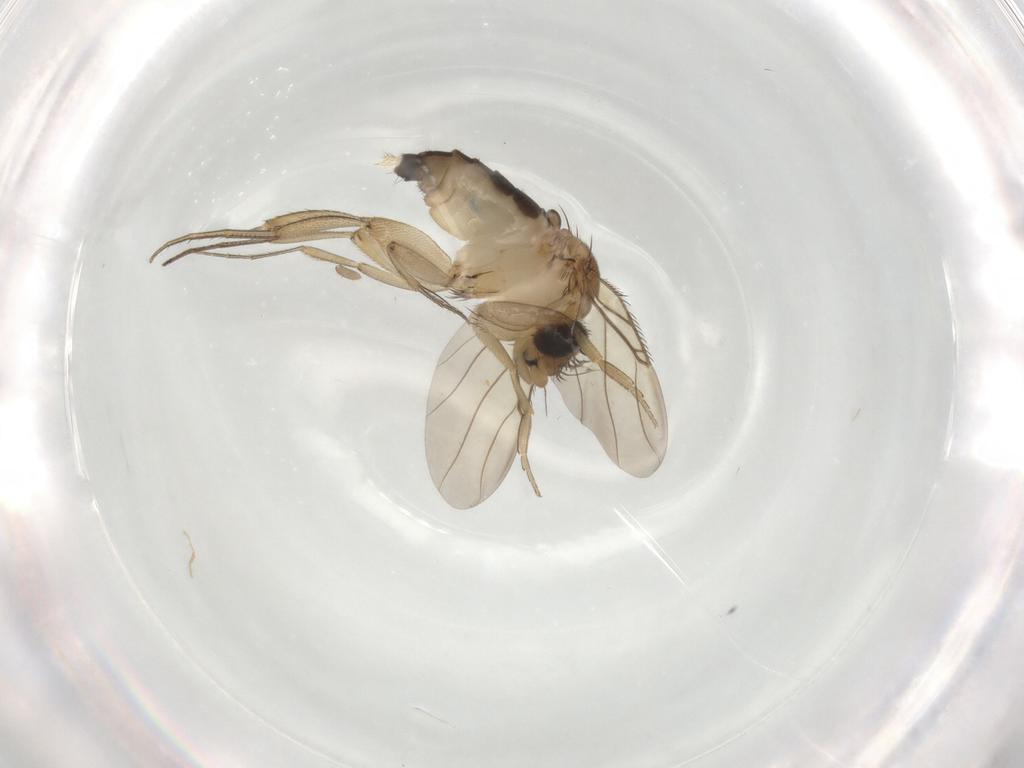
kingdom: Animalia
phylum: Arthropoda
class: Insecta
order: Diptera
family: Phoridae
